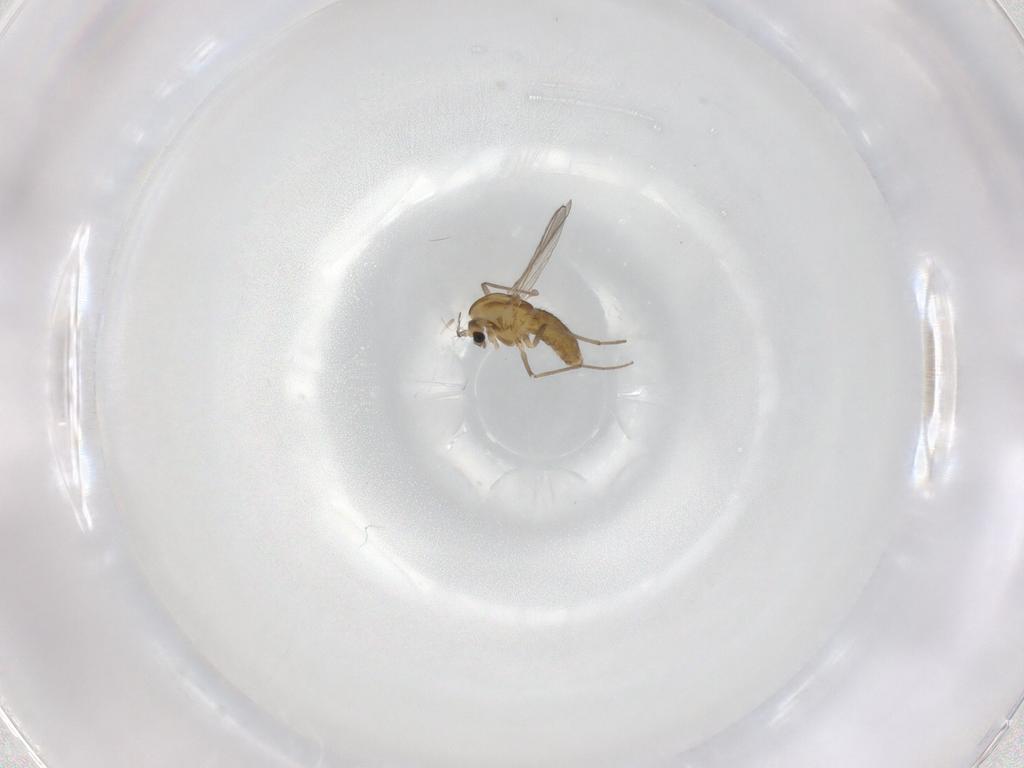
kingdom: Animalia
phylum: Arthropoda
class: Insecta
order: Diptera
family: Chironomidae
